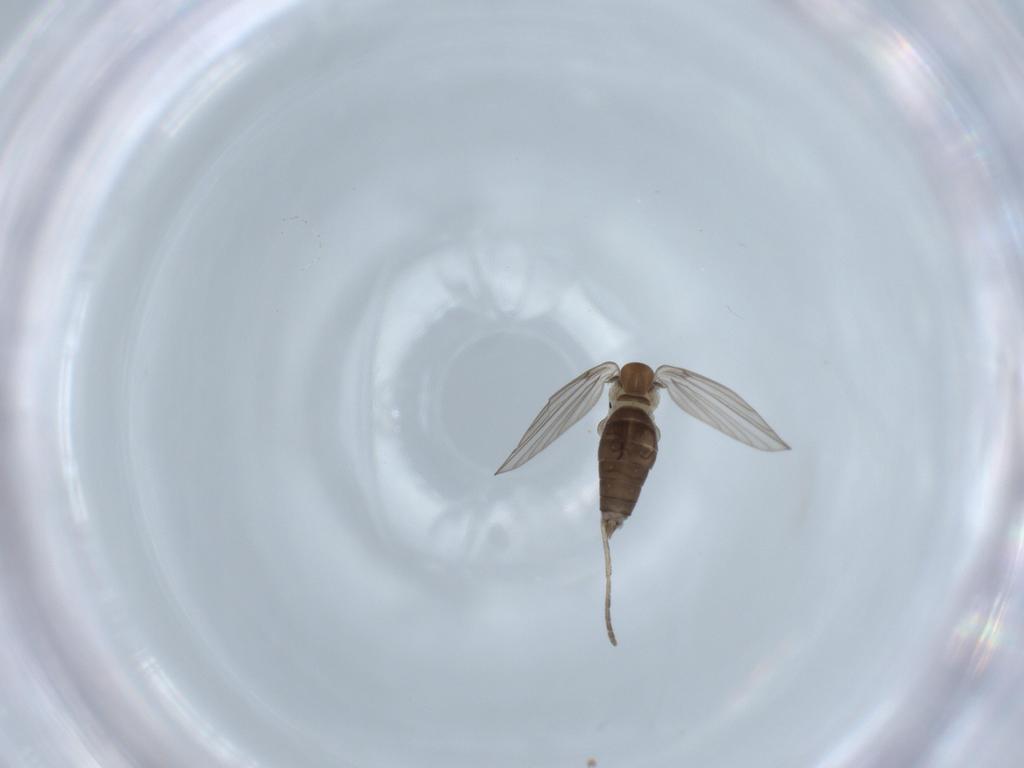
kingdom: Animalia
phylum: Arthropoda
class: Insecta
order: Diptera
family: Psychodidae
